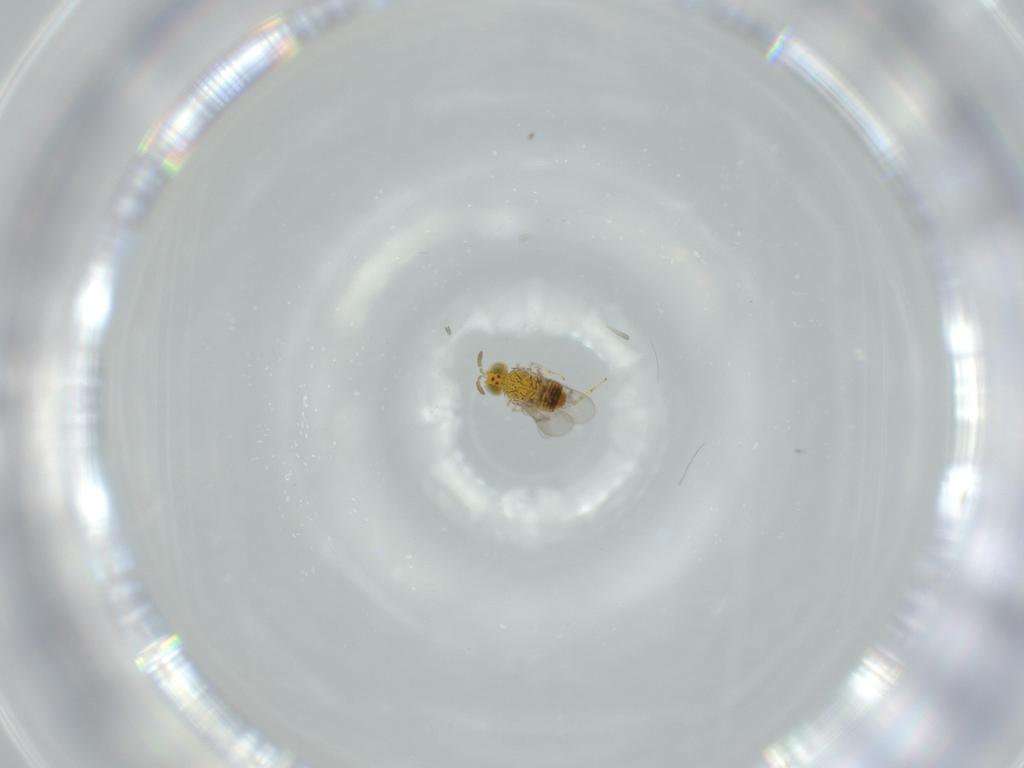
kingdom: Animalia
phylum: Arthropoda
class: Insecta
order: Hymenoptera
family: Aphelinidae
